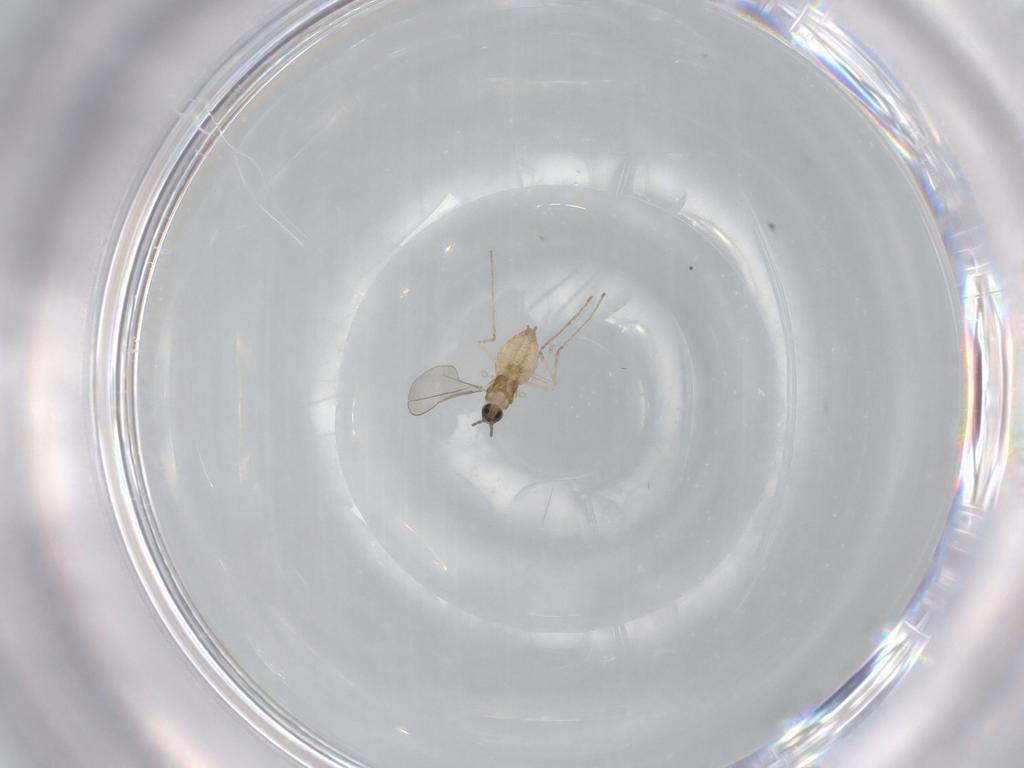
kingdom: Animalia
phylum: Arthropoda
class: Insecta
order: Diptera
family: Cecidomyiidae
